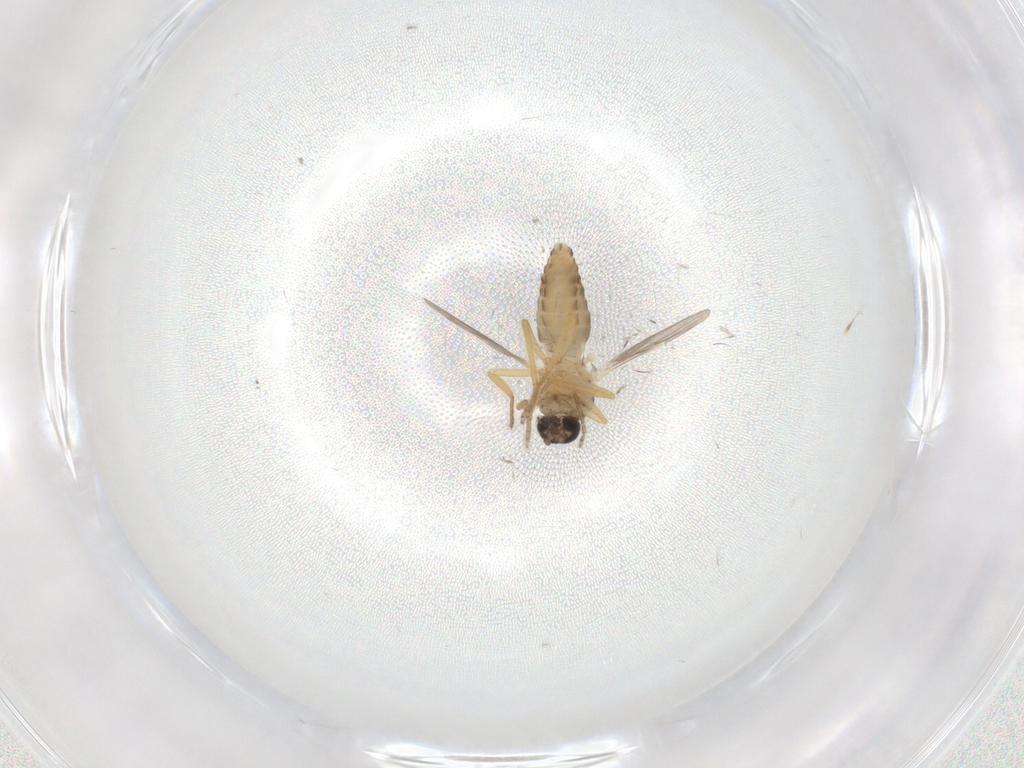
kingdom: Animalia
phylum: Arthropoda
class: Insecta
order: Diptera
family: Ceratopogonidae
